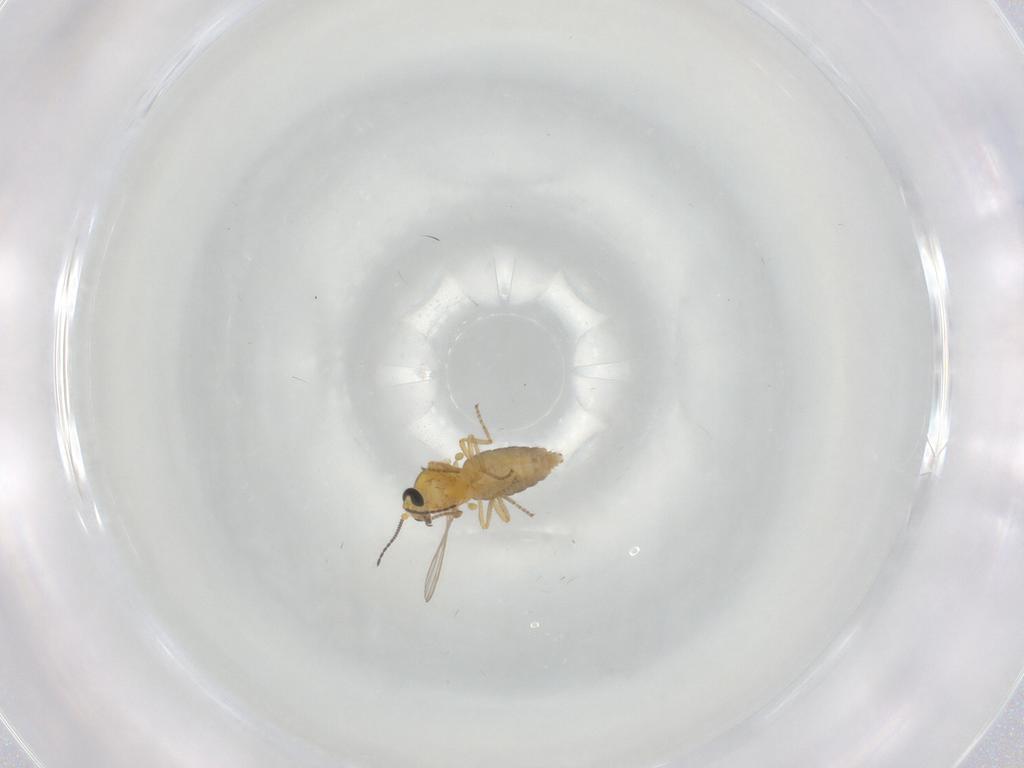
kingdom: Animalia
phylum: Arthropoda
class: Insecta
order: Diptera
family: Ceratopogonidae
